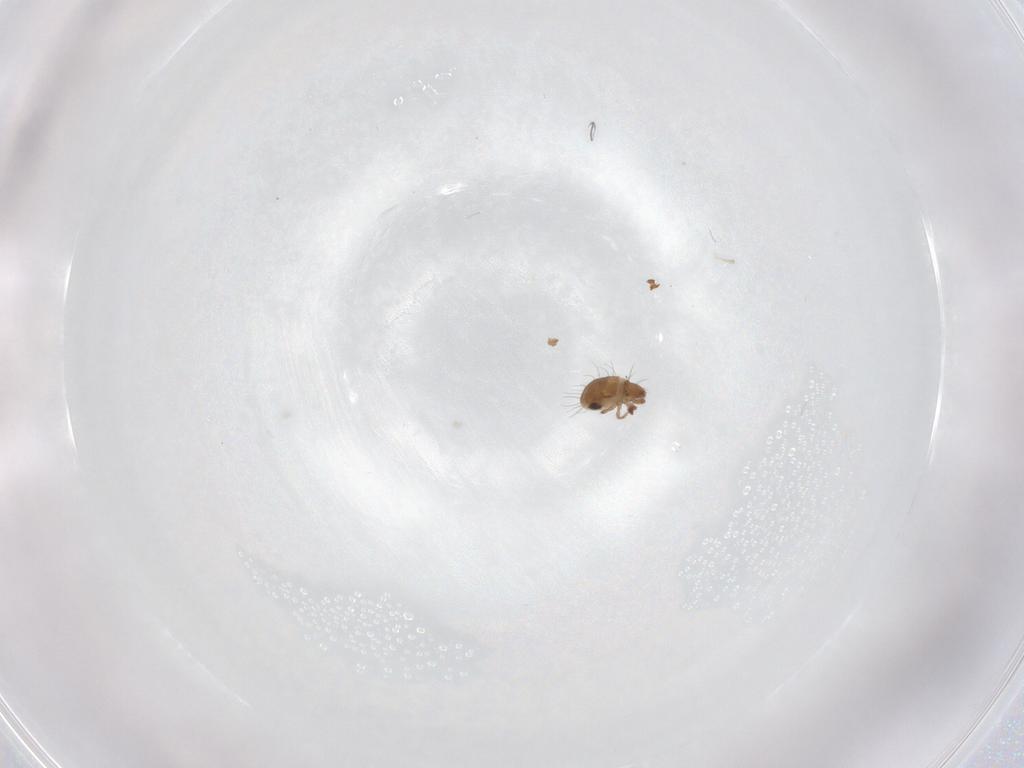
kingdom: Animalia
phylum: Arthropoda
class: Arachnida
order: Sarcoptiformes
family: Humerobatidae
